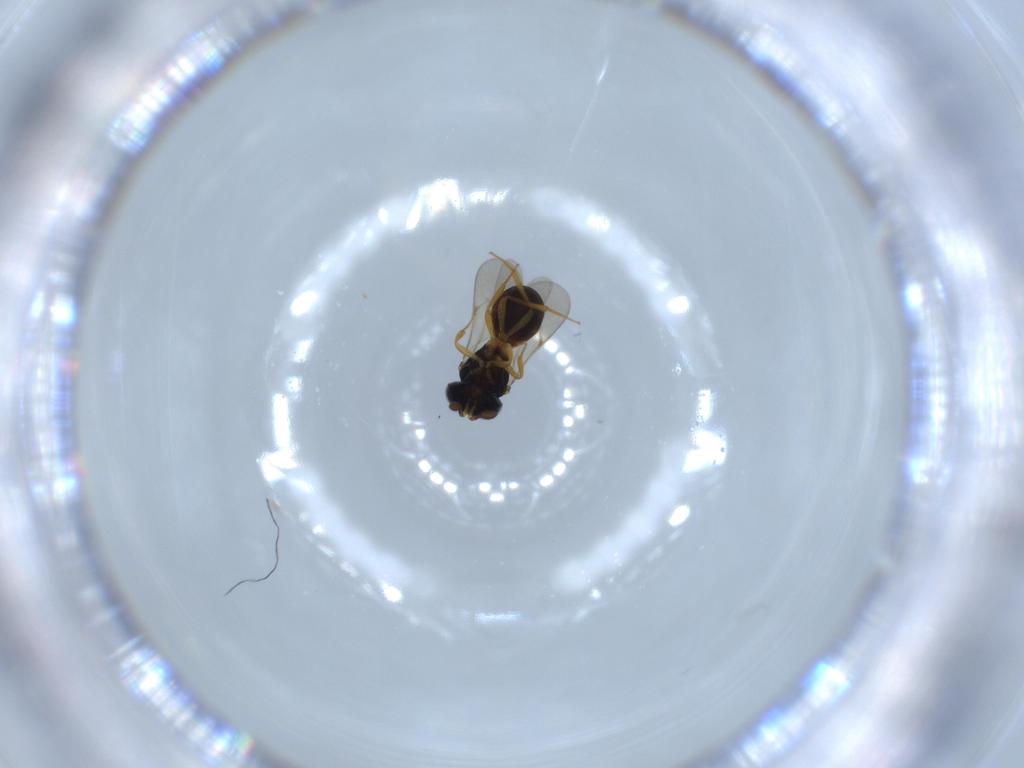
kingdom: Animalia
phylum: Arthropoda
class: Insecta
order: Hymenoptera
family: Scelionidae
